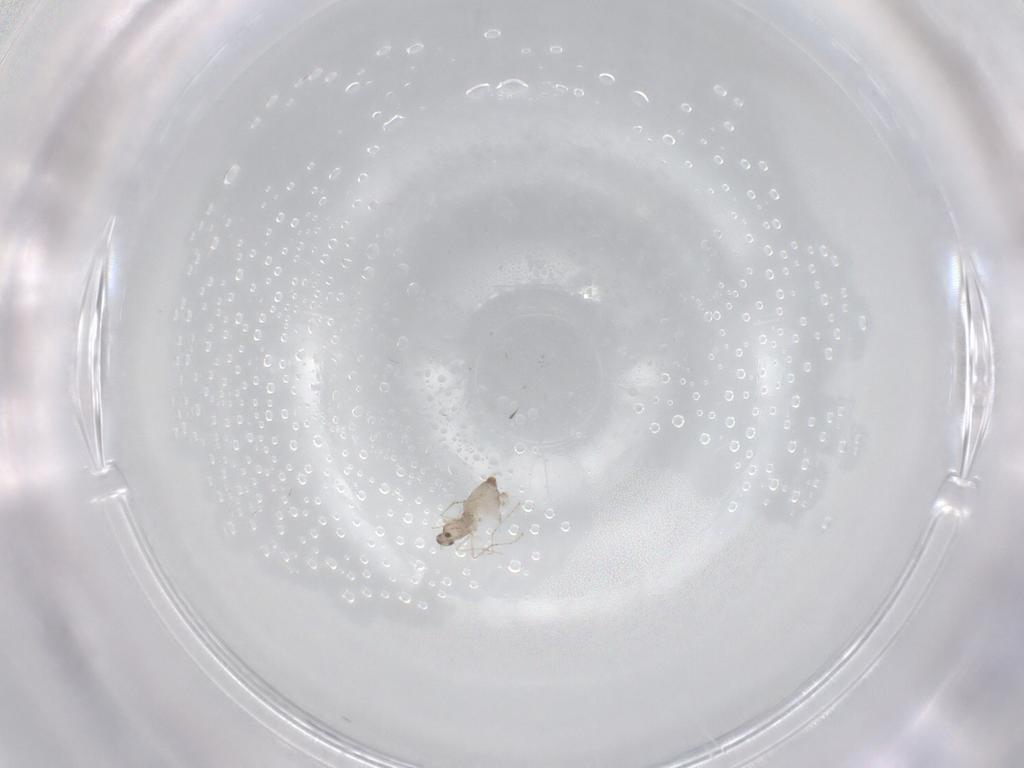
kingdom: Animalia
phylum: Arthropoda
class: Insecta
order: Diptera
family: Cecidomyiidae
